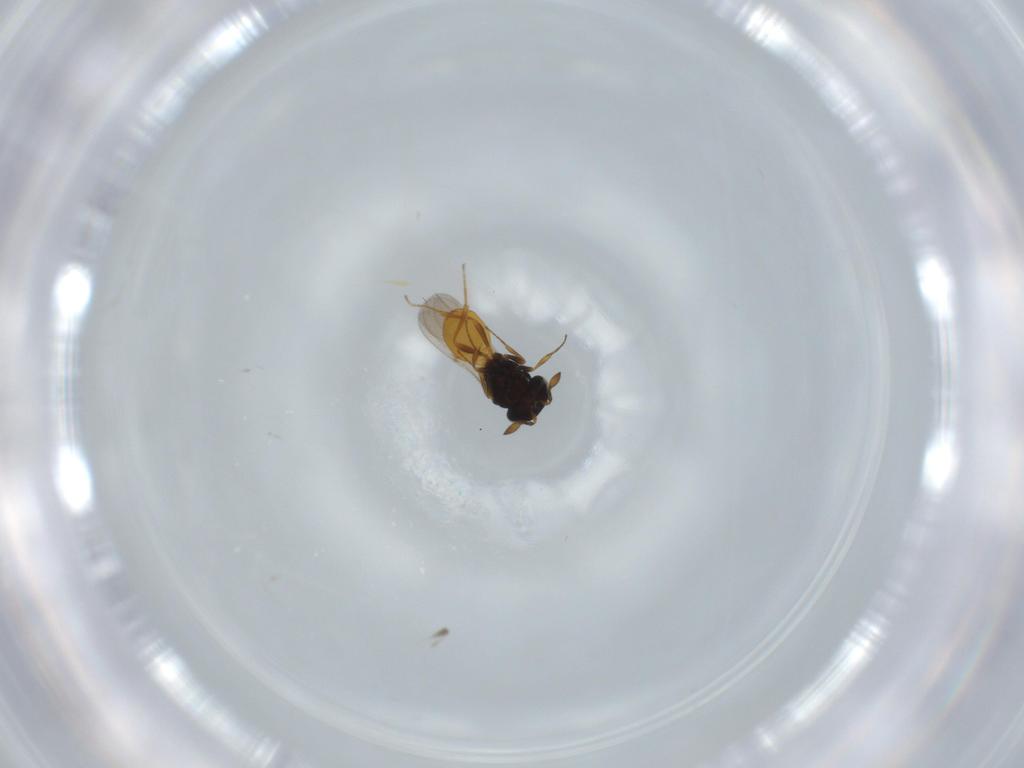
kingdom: Animalia
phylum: Arthropoda
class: Insecta
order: Hymenoptera
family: Scelionidae
